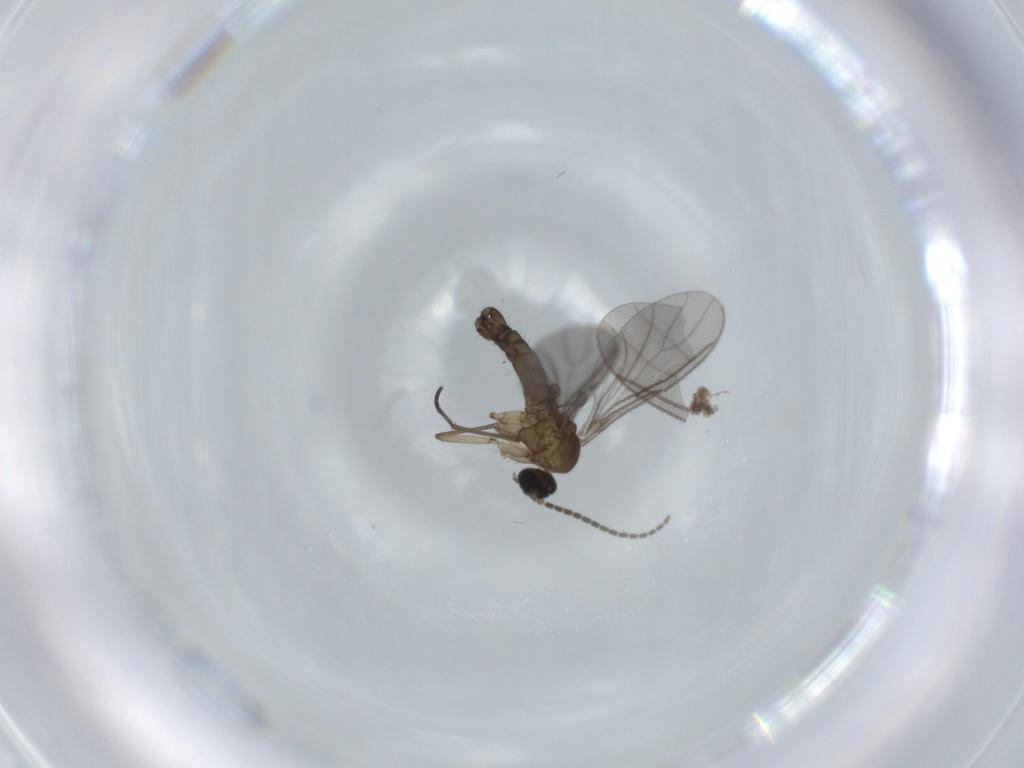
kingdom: Animalia
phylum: Arthropoda
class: Insecta
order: Diptera
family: Sciaridae
